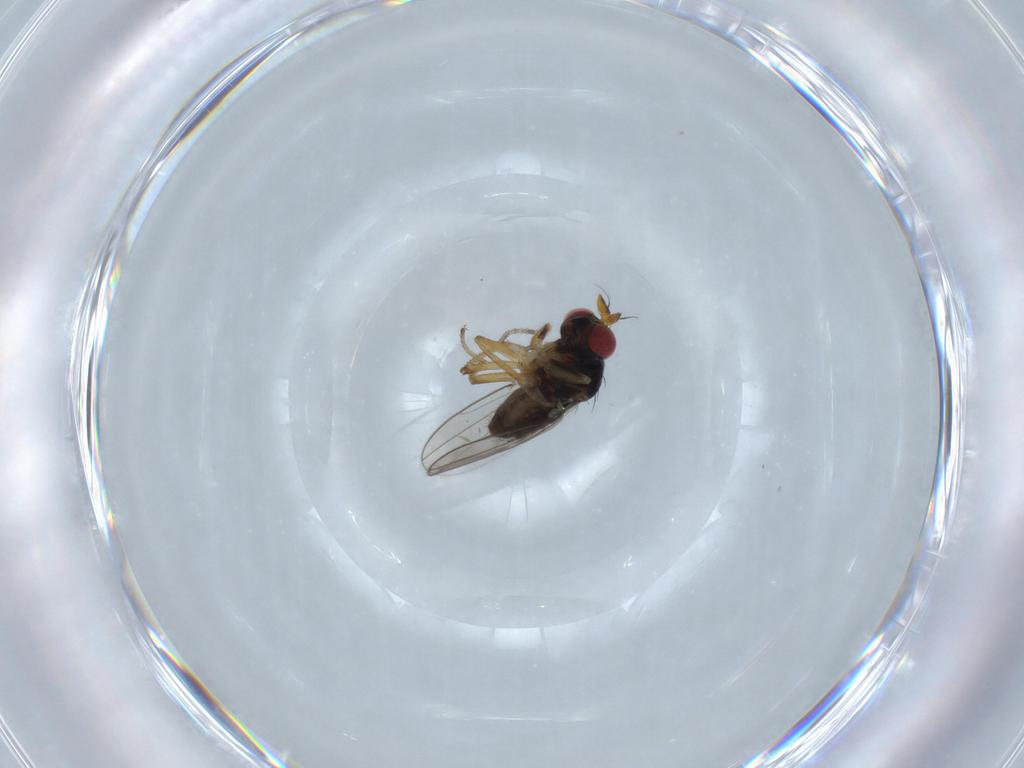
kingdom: Animalia
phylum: Arthropoda
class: Insecta
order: Diptera
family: Ephydridae
